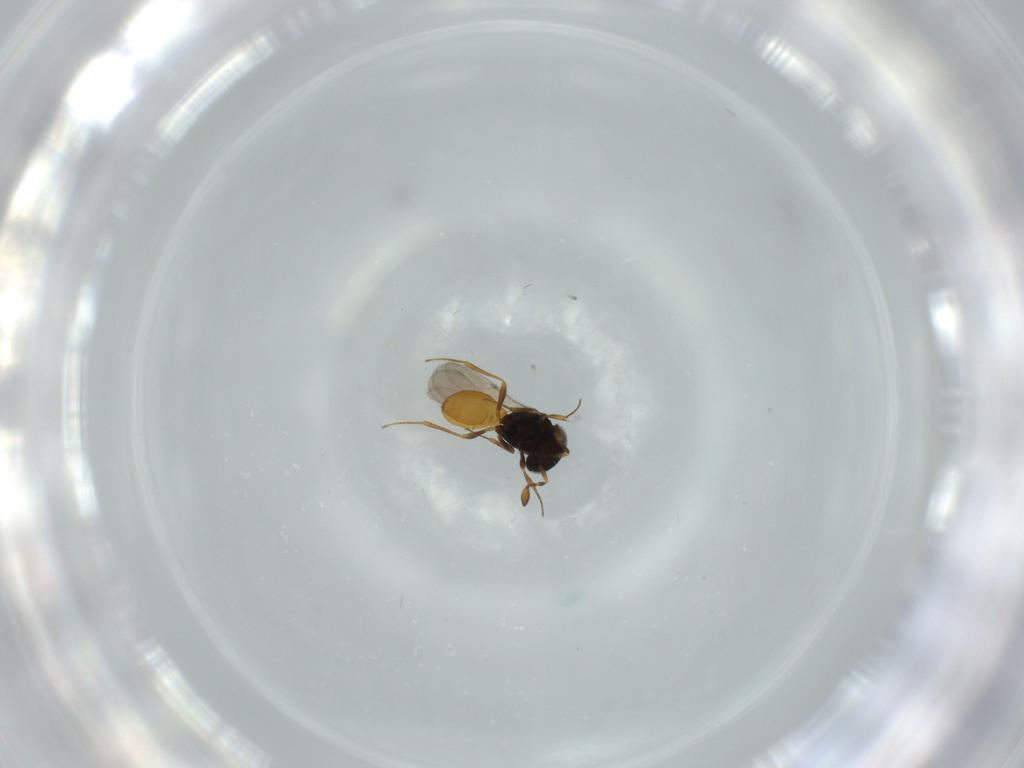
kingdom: Animalia
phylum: Arthropoda
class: Insecta
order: Hymenoptera
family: Scelionidae
